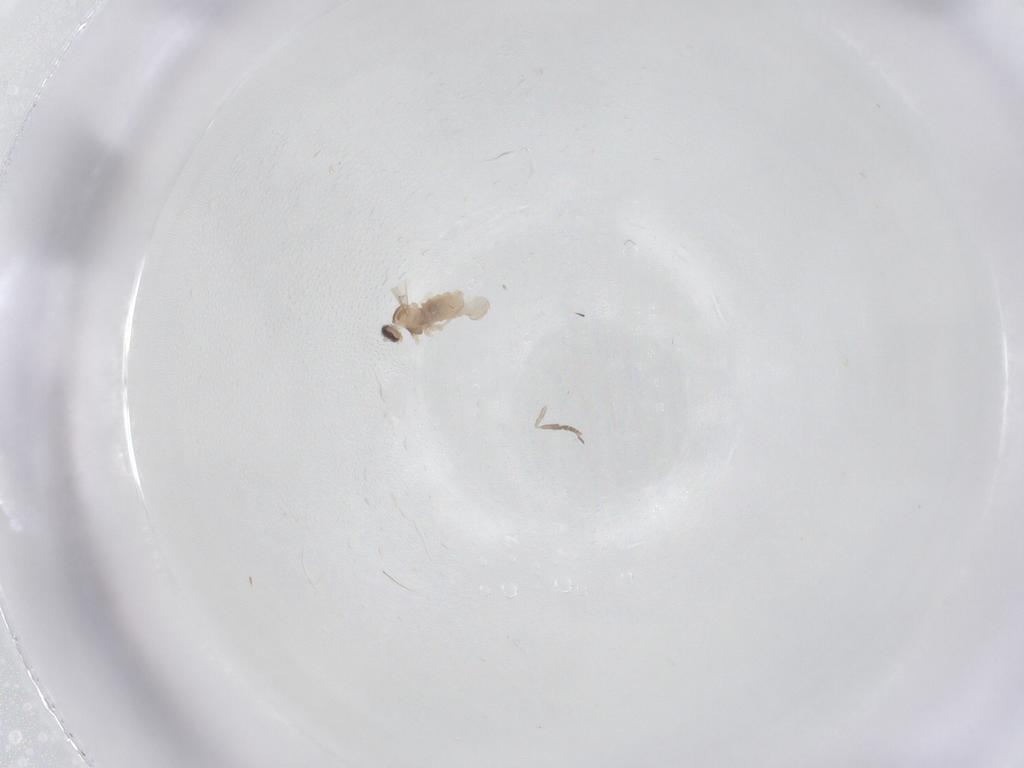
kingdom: Animalia
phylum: Arthropoda
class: Insecta
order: Diptera
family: Cecidomyiidae
